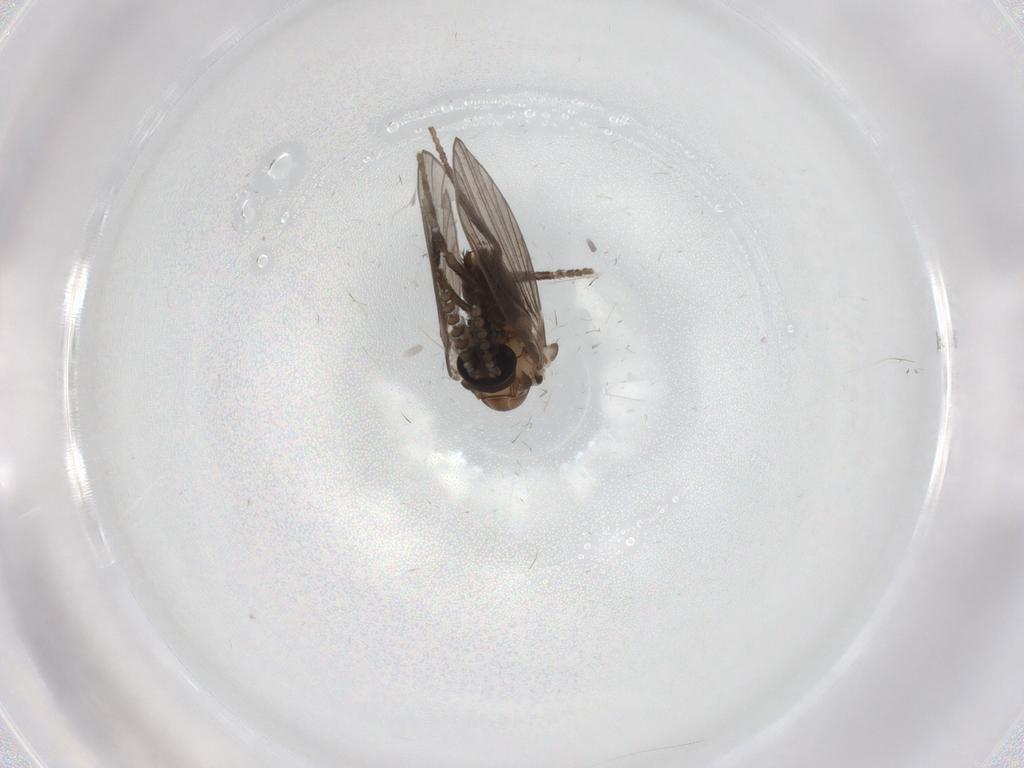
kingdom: Animalia
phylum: Arthropoda
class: Insecta
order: Diptera
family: Psychodidae
